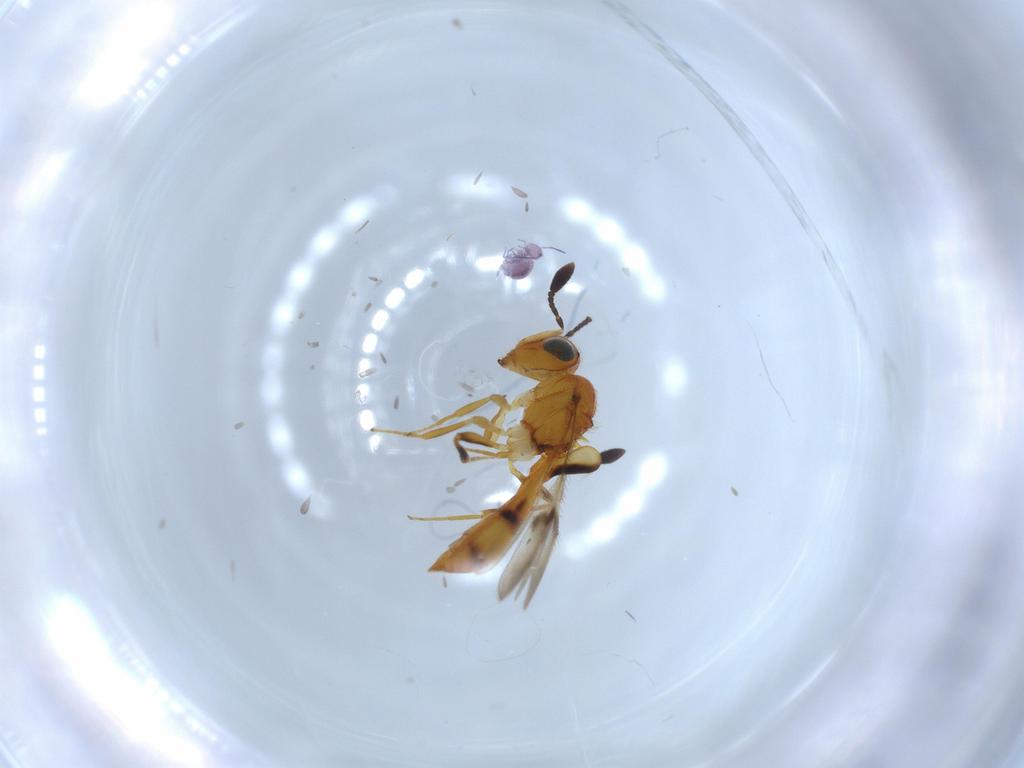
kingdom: Animalia
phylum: Arthropoda
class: Insecta
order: Hymenoptera
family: Scelionidae
